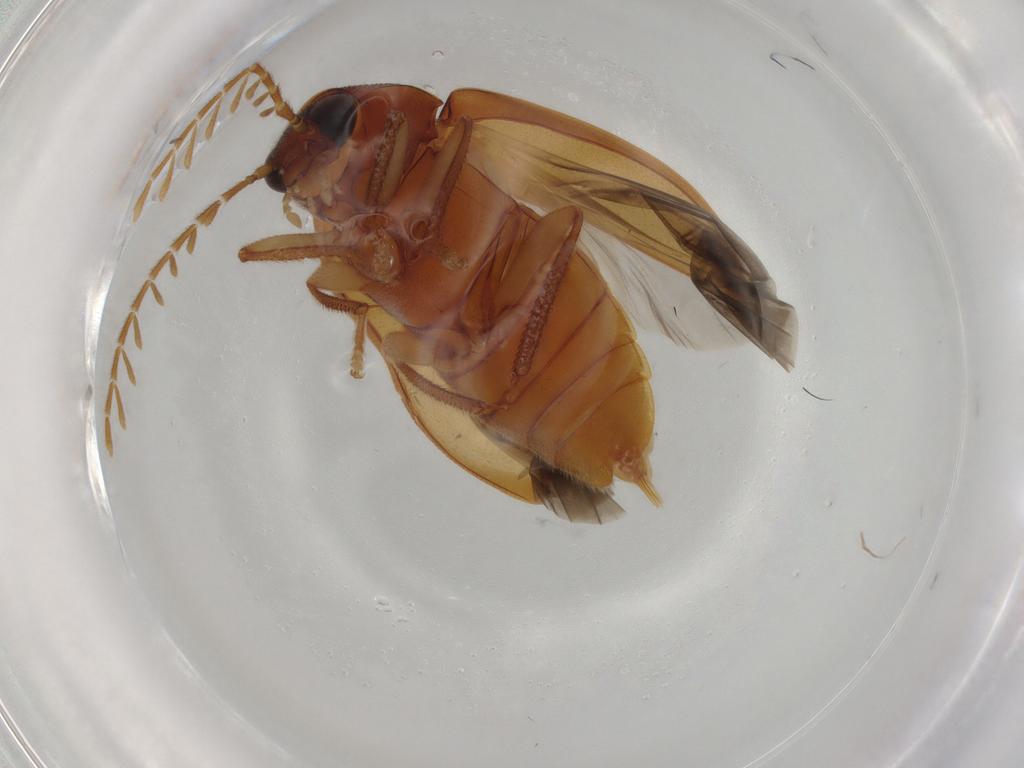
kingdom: Animalia
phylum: Arthropoda
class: Insecta
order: Coleoptera
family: Ptilodactylidae
